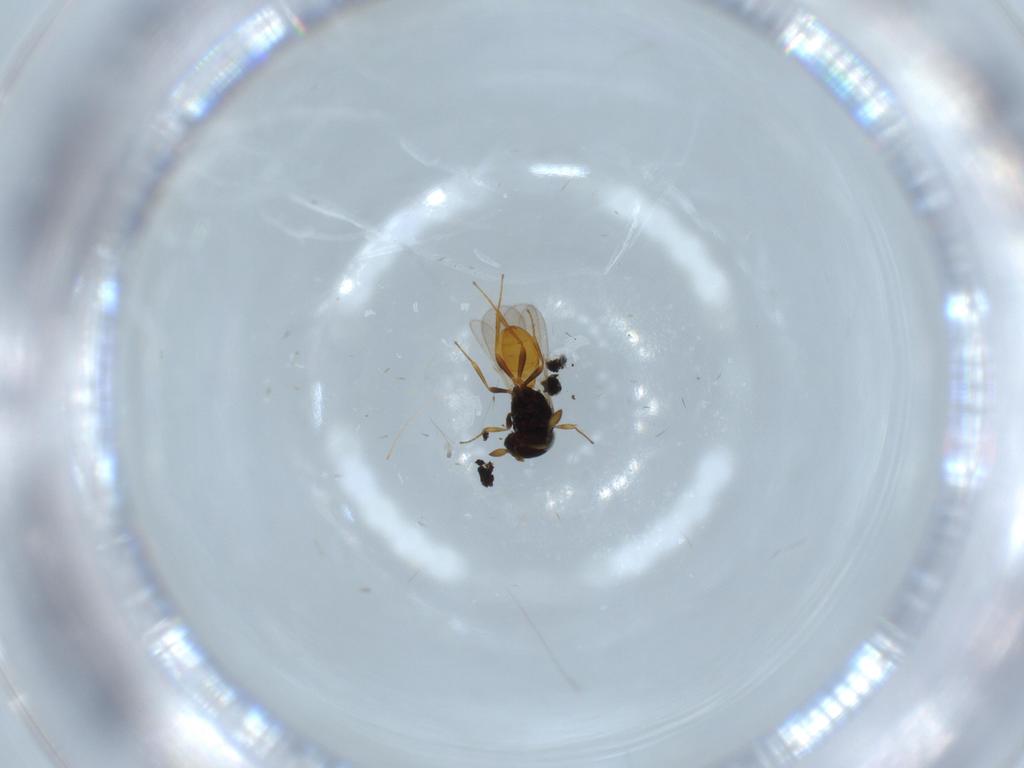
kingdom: Animalia
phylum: Arthropoda
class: Insecta
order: Hymenoptera
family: Scelionidae
